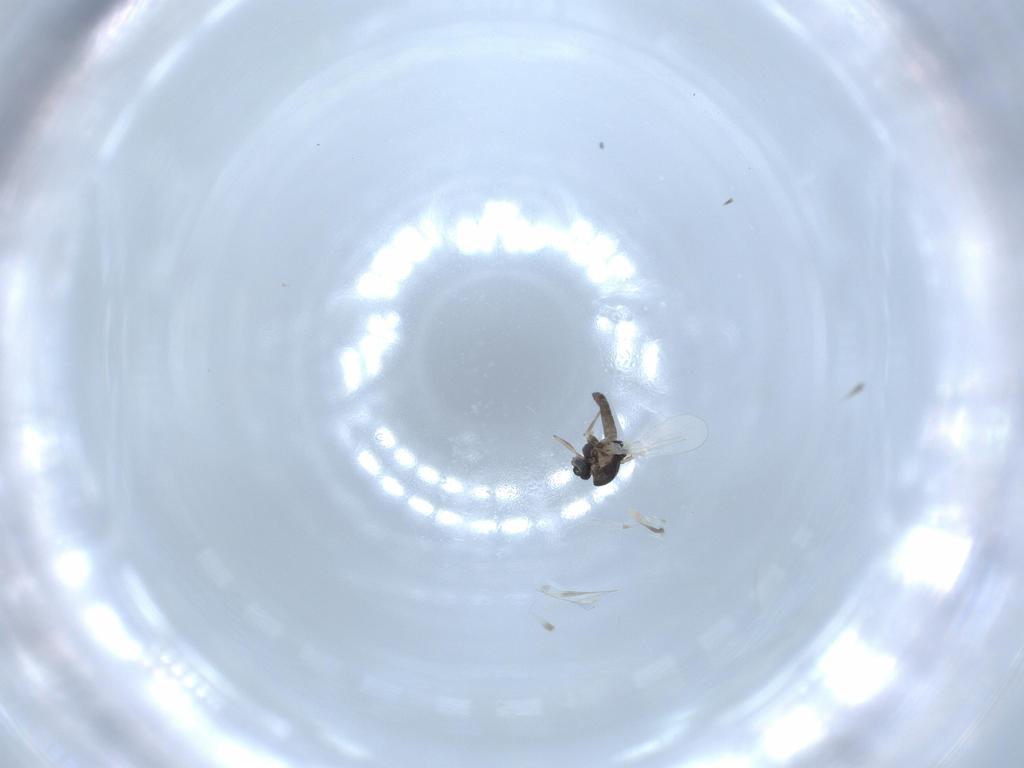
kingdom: Animalia
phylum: Arthropoda
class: Insecta
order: Diptera
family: Chironomidae
